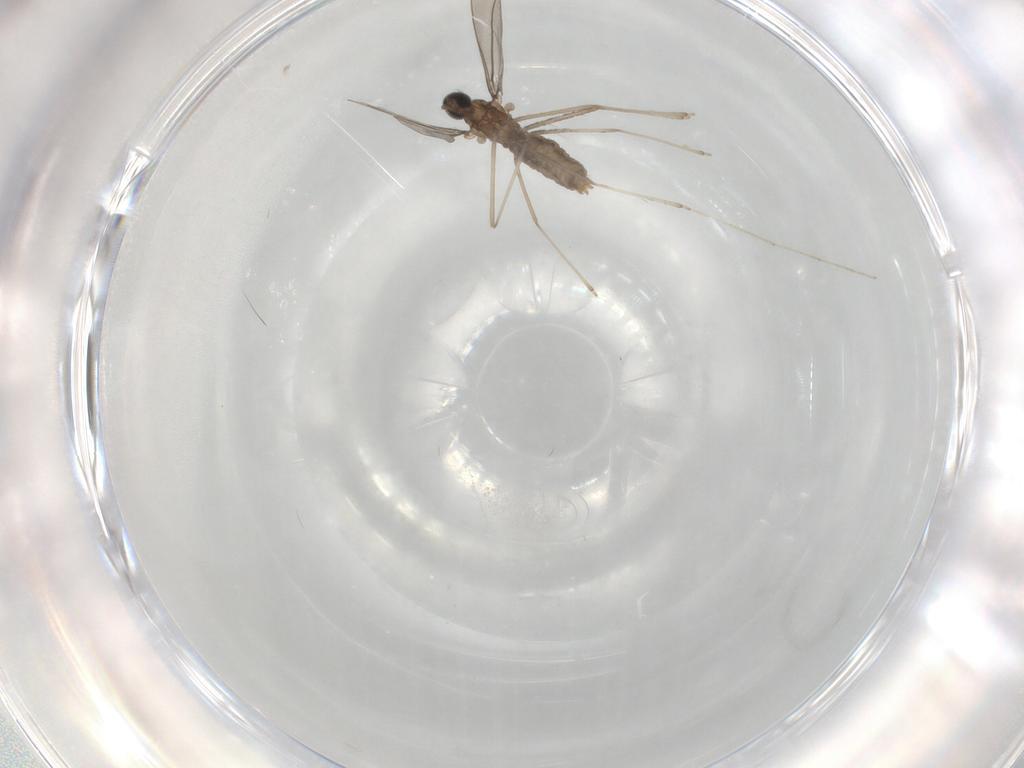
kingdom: Animalia
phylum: Arthropoda
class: Insecta
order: Diptera
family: Cecidomyiidae
